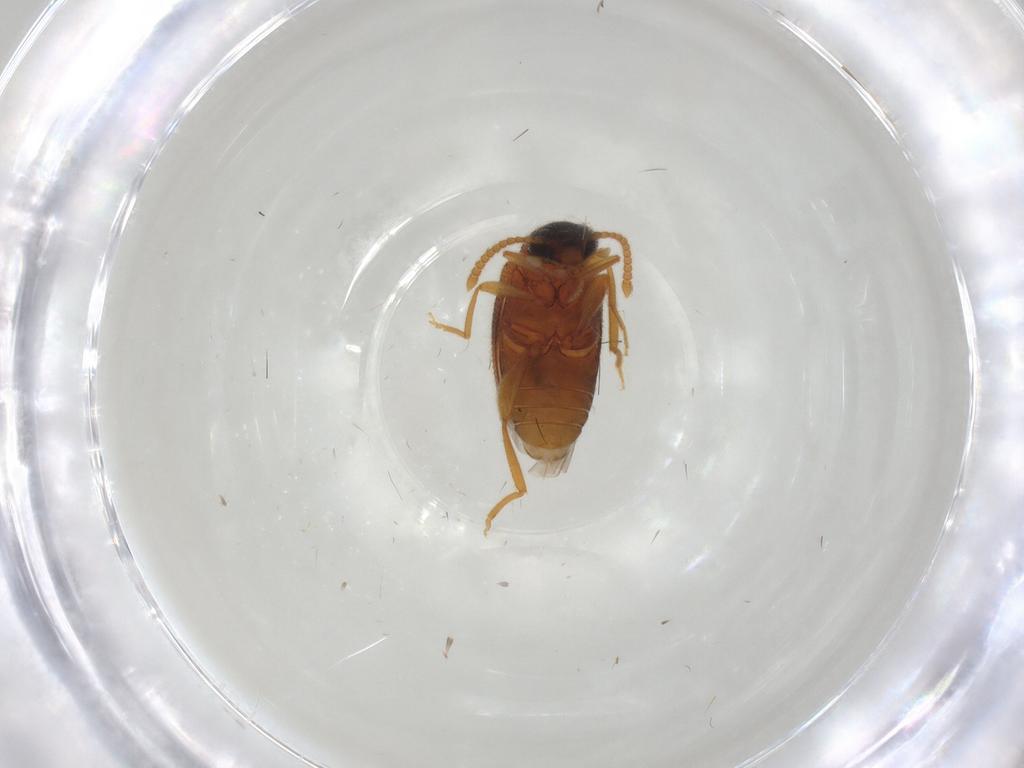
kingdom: Animalia
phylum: Arthropoda
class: Insecta
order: Coleoptera
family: Aderidae
